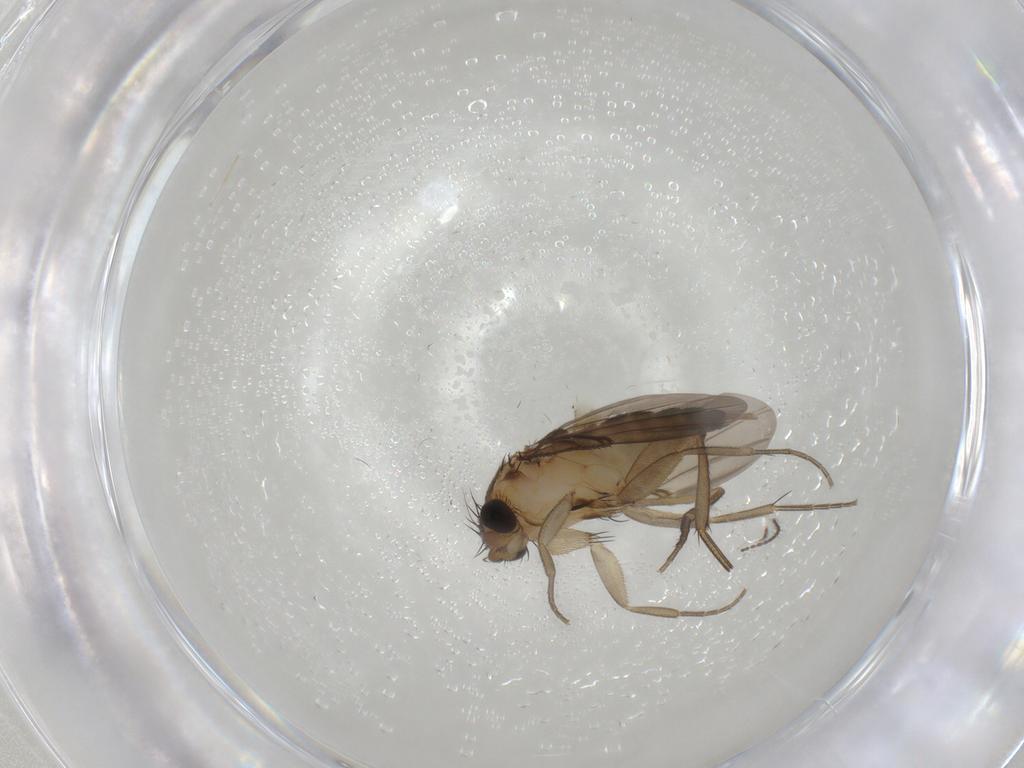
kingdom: Animalia
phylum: Arthropoda
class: Insecta
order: Diptera
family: Phoridae
